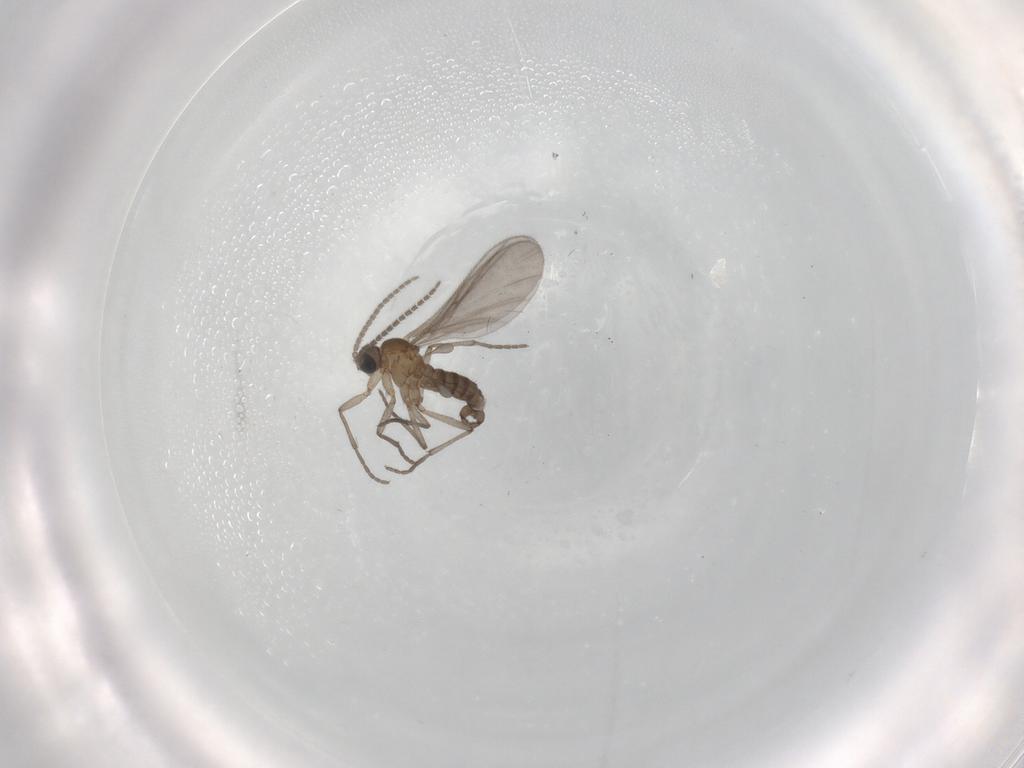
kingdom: Animalia
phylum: Arthropoda
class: Insecta
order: Diptera
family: Sciaridae
